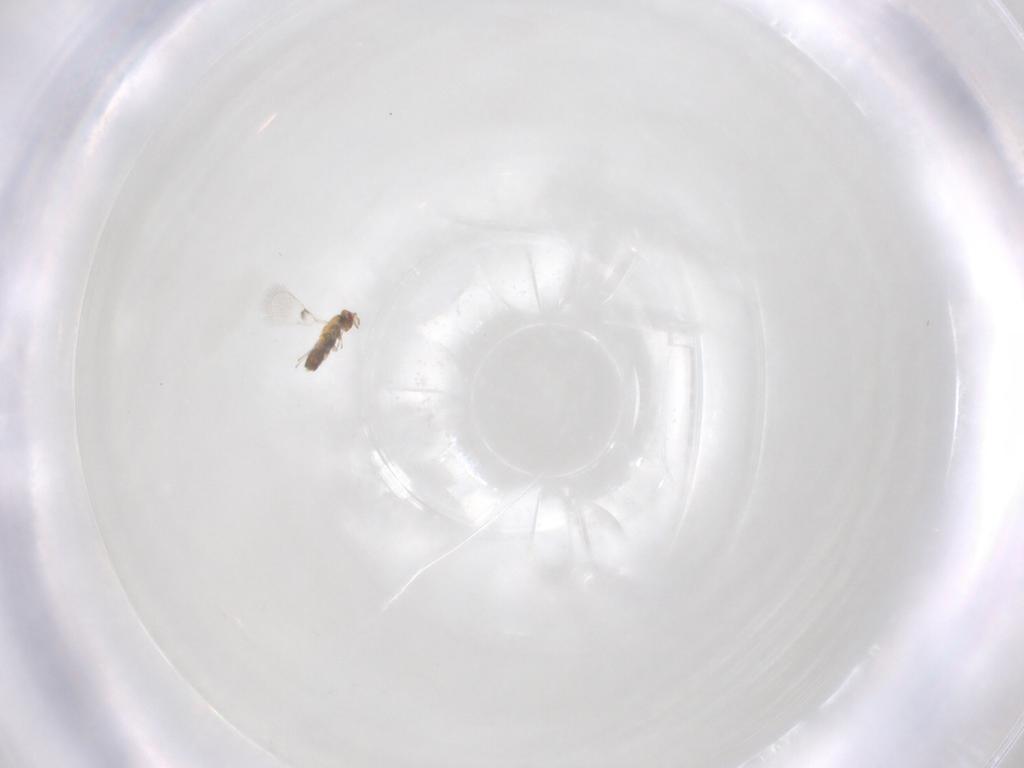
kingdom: Animalia
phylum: Arthropoda
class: Insecta
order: Hymenoptera
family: Trichogrammatidae
